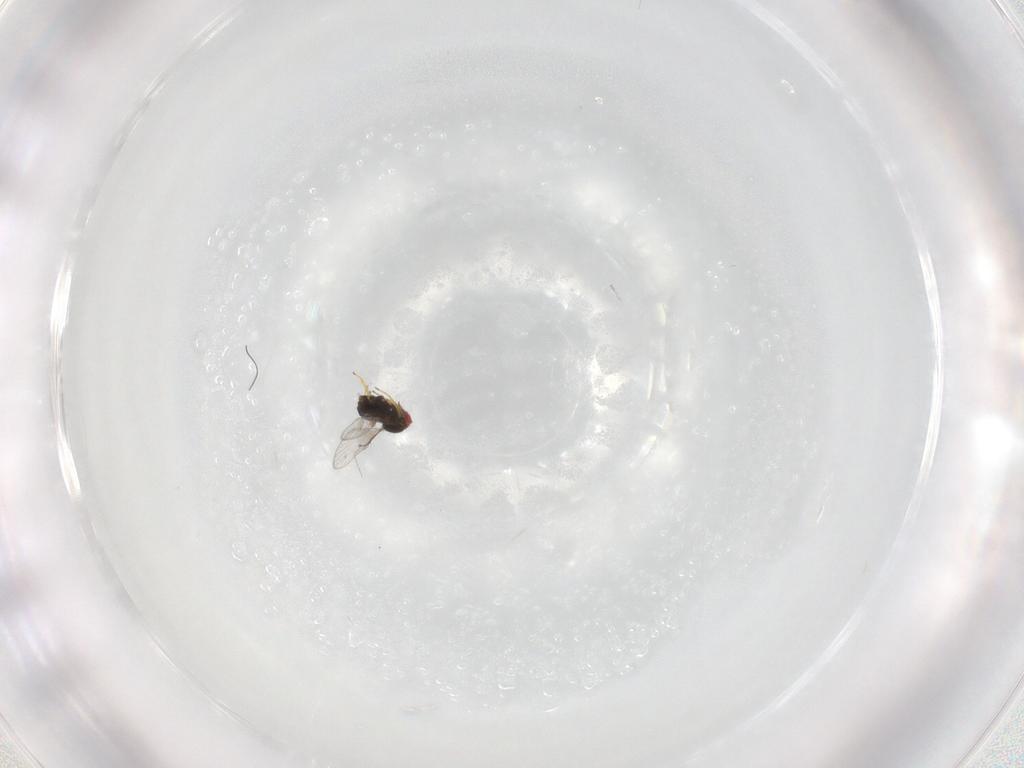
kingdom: Animalia
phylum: Arthropoda
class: Insecta
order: Hymenoptera
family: Trichogrammatidae
